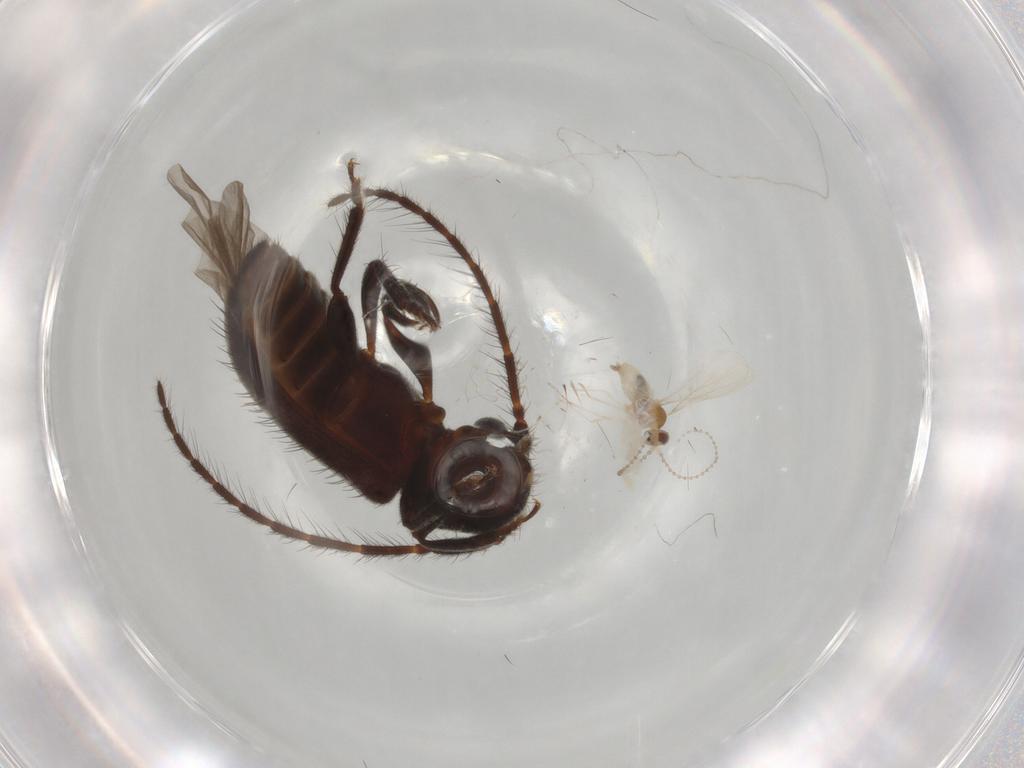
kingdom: Animalia
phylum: Arthropoda
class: Insecta
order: Coleoptera
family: Cerambycidae
